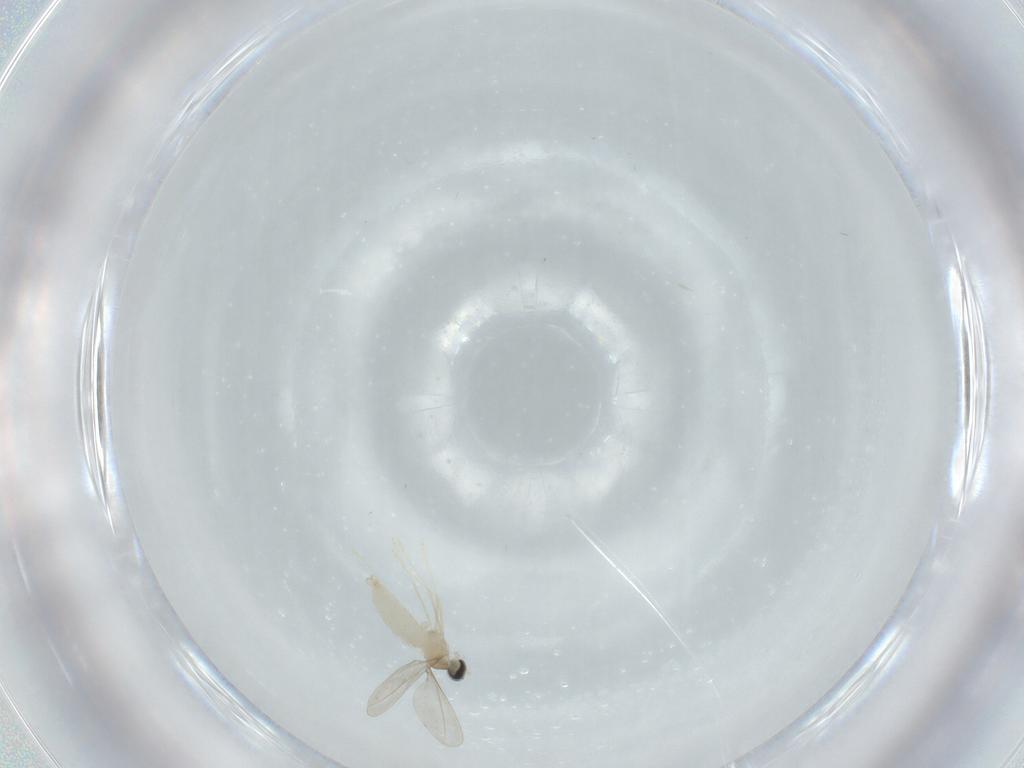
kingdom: Animalia
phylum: Arthropoda
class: Insecta
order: Diptera
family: Cecidomyiidae
